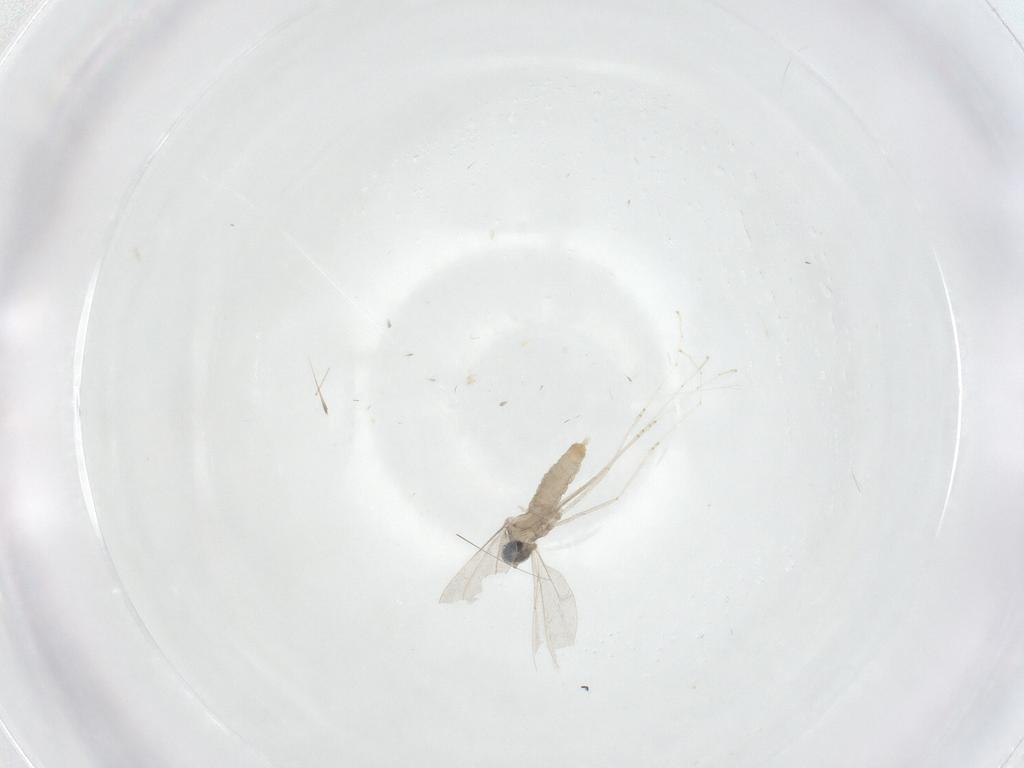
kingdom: Animalia
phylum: Arthropoda
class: Insecta
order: Diptera
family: Cecidomyiidae
